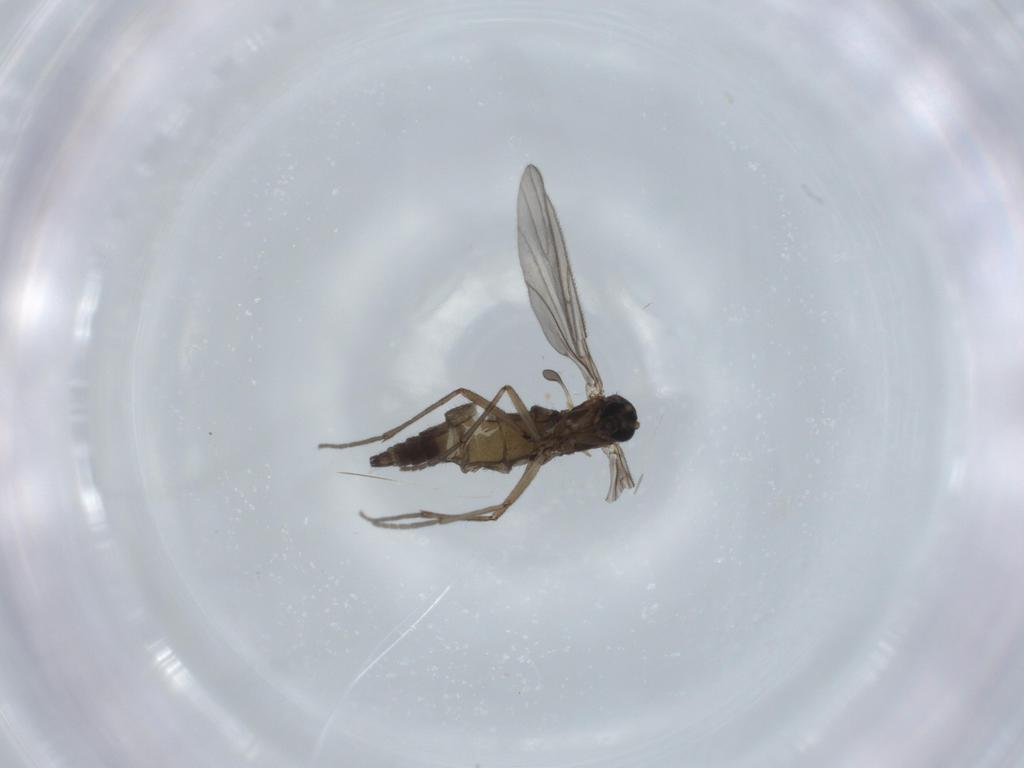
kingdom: Animalia
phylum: Arthropoda
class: Insecta
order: Diptera
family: Sciaridae
